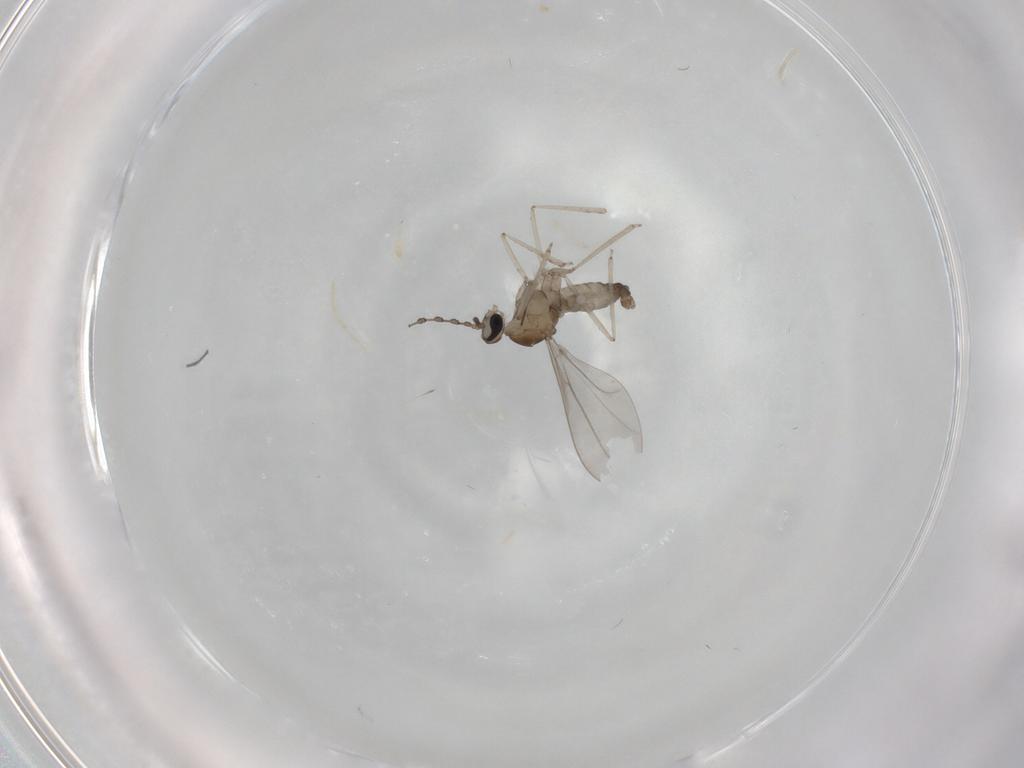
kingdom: Animalia
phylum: Arthropoda
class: Insecta
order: Diptera
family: Cecidomyiidae
